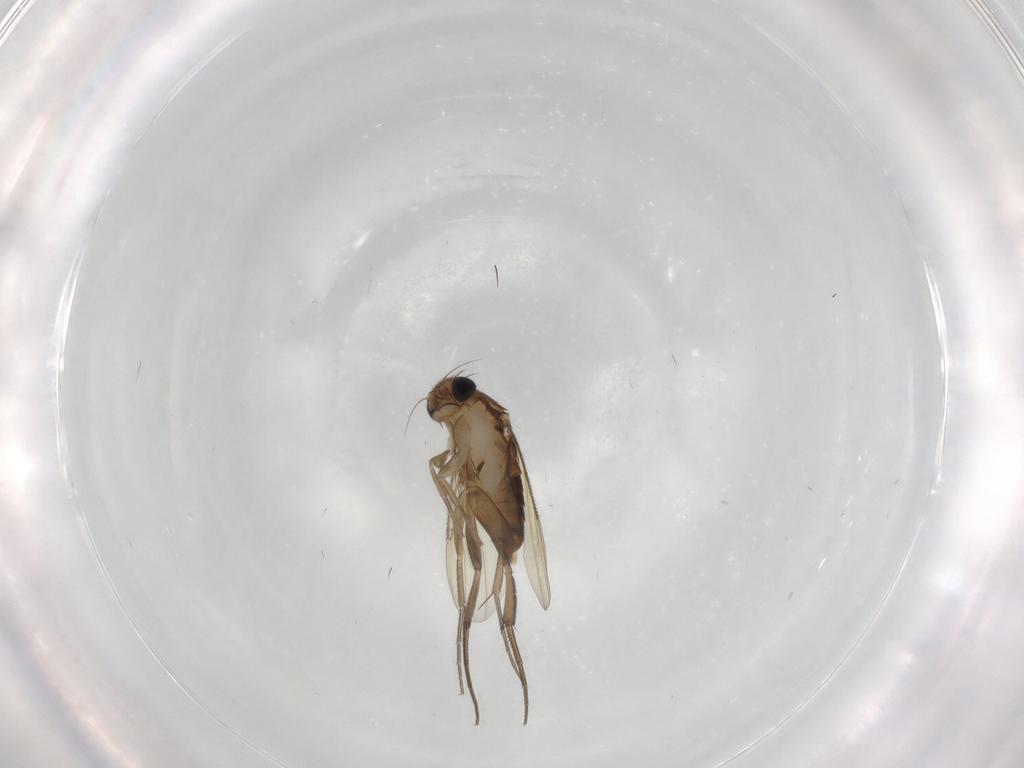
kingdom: Animalia
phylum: Arthropoda
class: Insecta
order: Diptera
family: Phoridae
